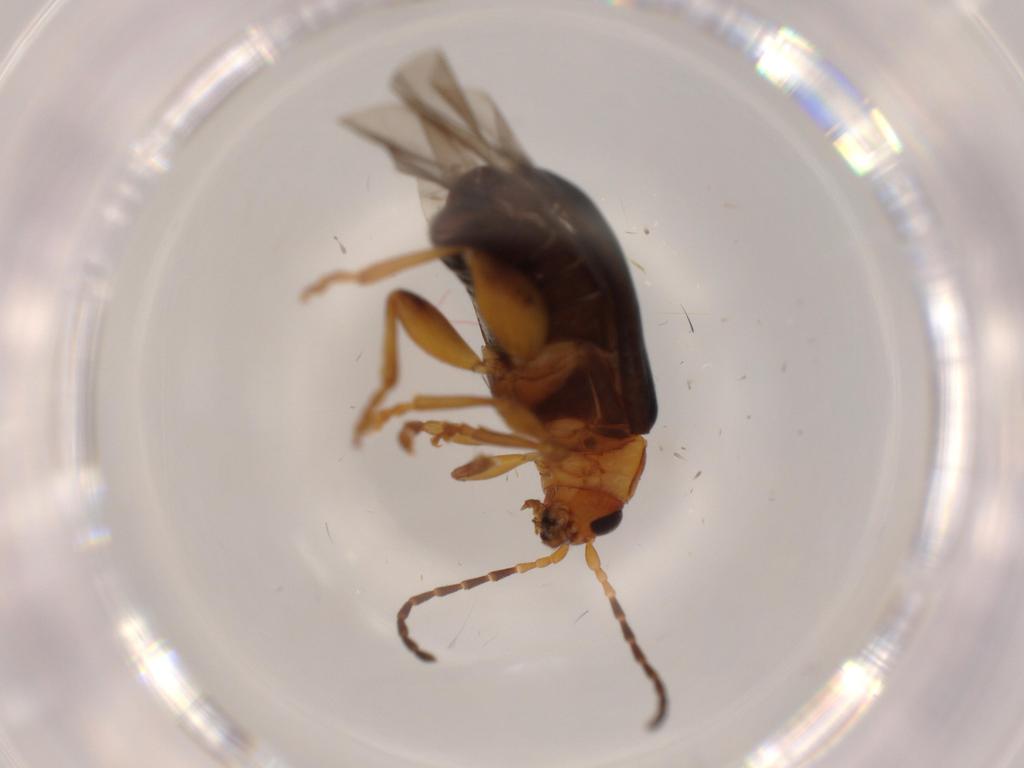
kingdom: Animalia
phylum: Arthropoda
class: Insecta
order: Coleoptera
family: Chrysomelidae
